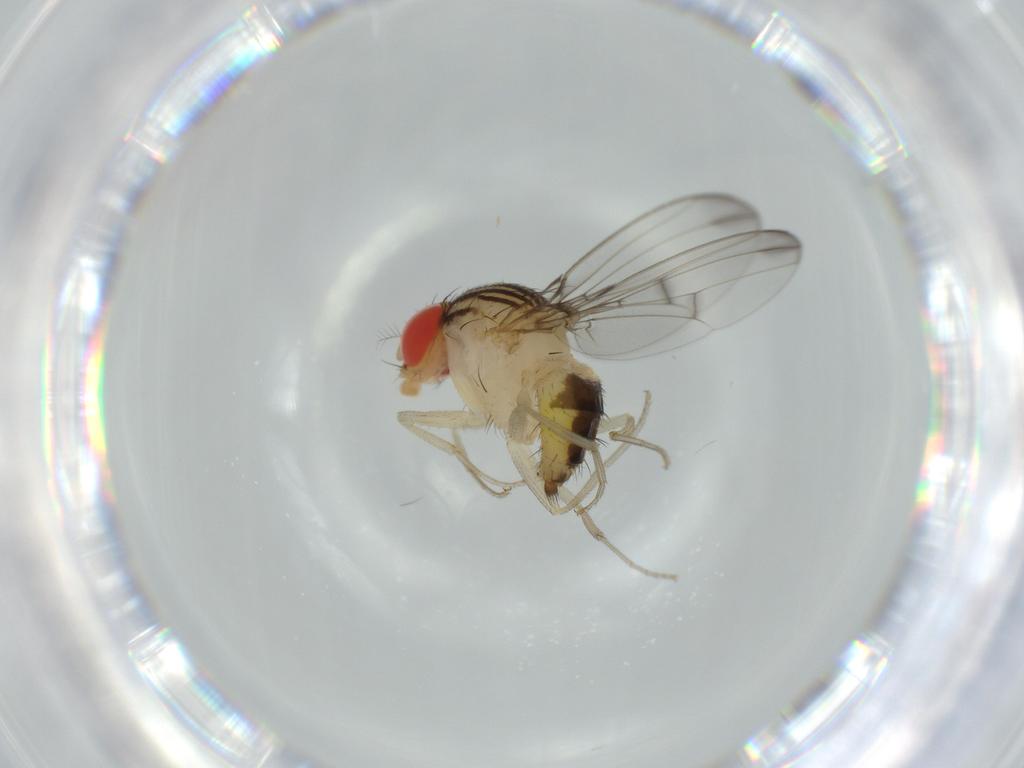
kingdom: Animalia
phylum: Arthropoda
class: Insecta
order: Diptera
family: Drosophilidae
